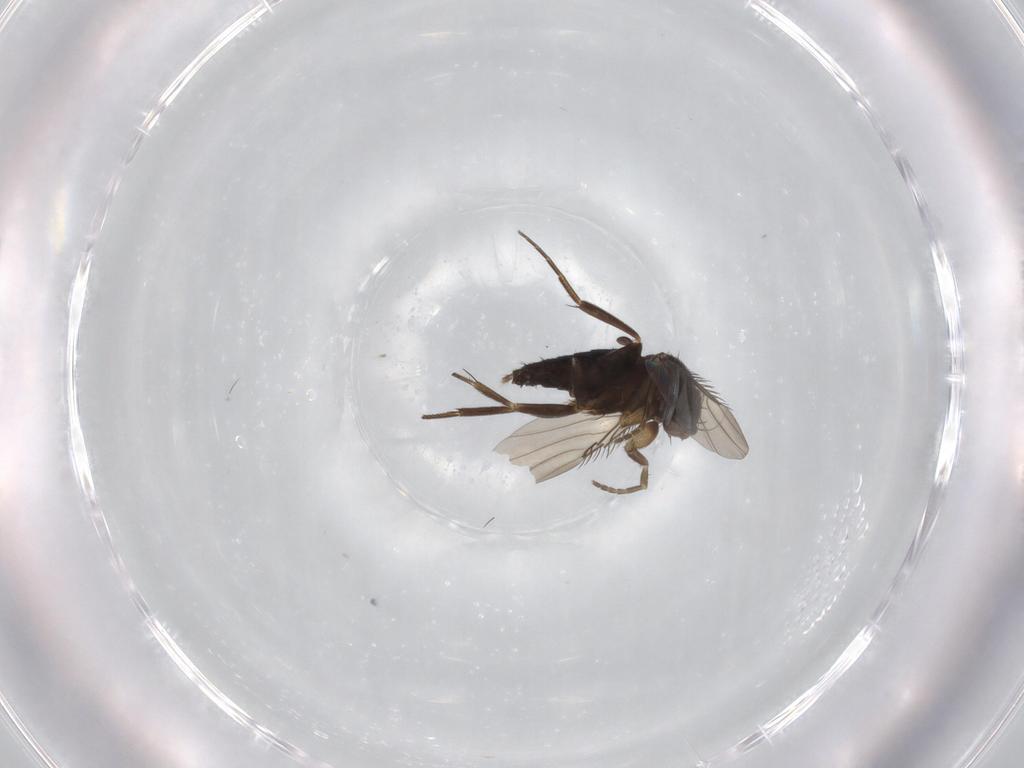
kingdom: Animalia
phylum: Arthropoda
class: Insecta
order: Diptera
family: Phoridae
